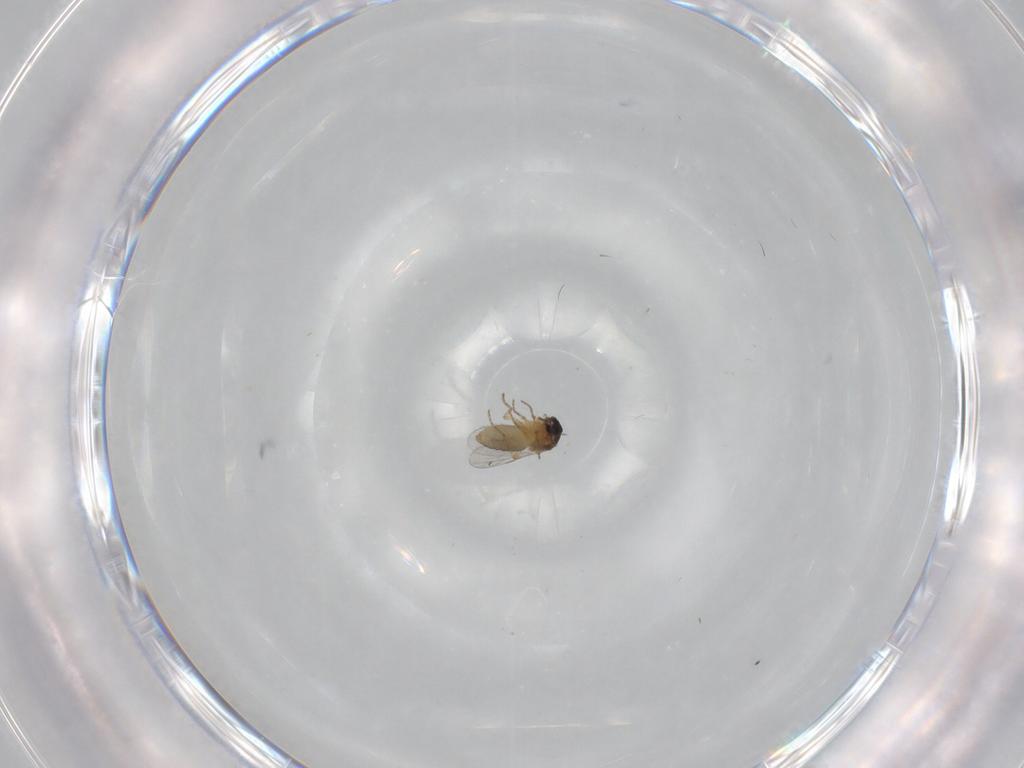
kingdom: Animalia
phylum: Arthropoda
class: Insecta
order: Diptera
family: Ceratopogonidae
